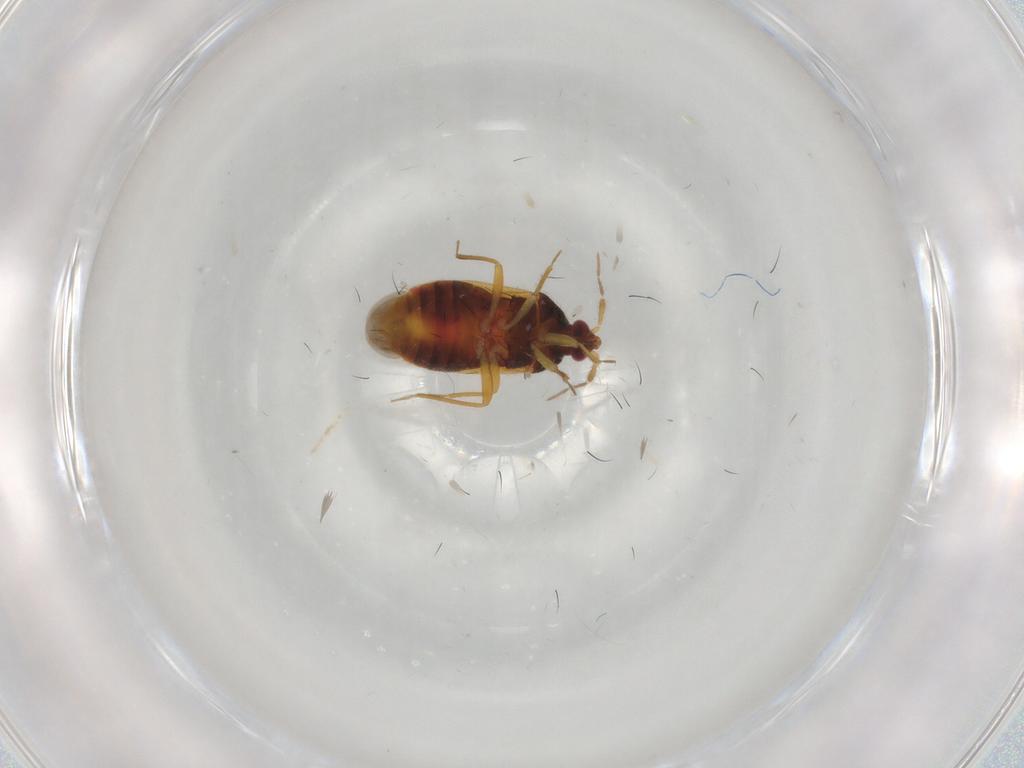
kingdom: Animalia
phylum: Arthropoda
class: Insecta
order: Hemiptera
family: Anthocoridae
